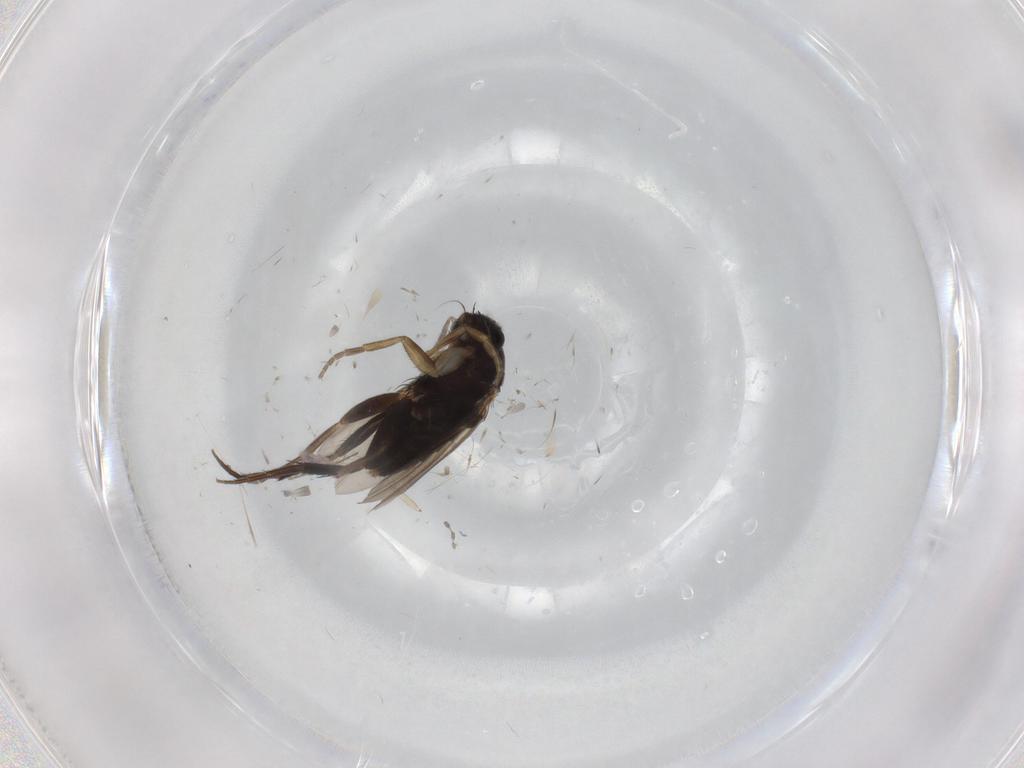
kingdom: Animalia
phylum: Arthropoda
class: Insecta
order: Diptera
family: Phoridae
